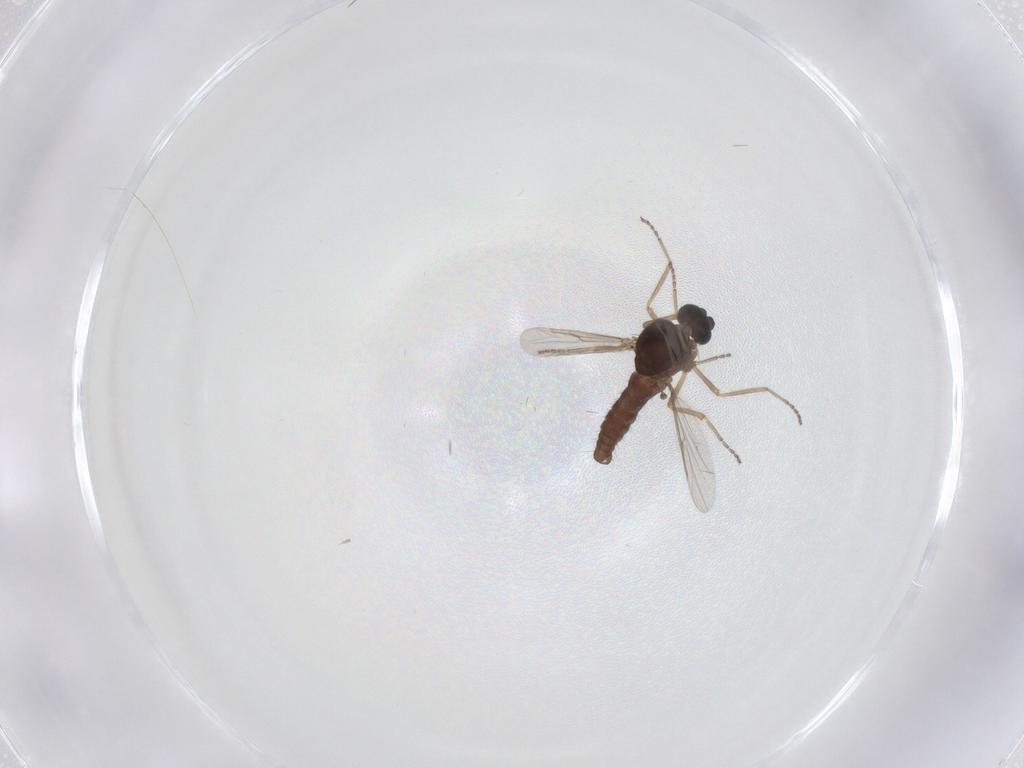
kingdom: Animalia
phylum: Arthropoda
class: Insecta
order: Diptera
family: Ceratopogonidae
